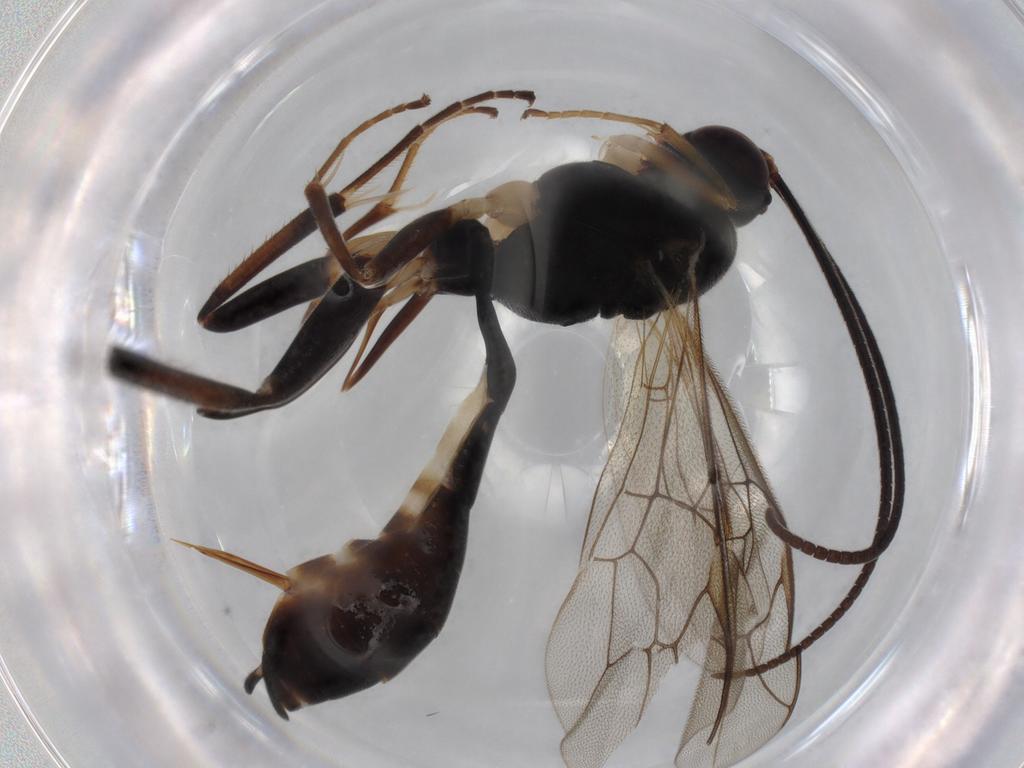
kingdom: Animalia
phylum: Arthropoda
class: Insecta
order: Hymenoptera
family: Ichneumonidae
